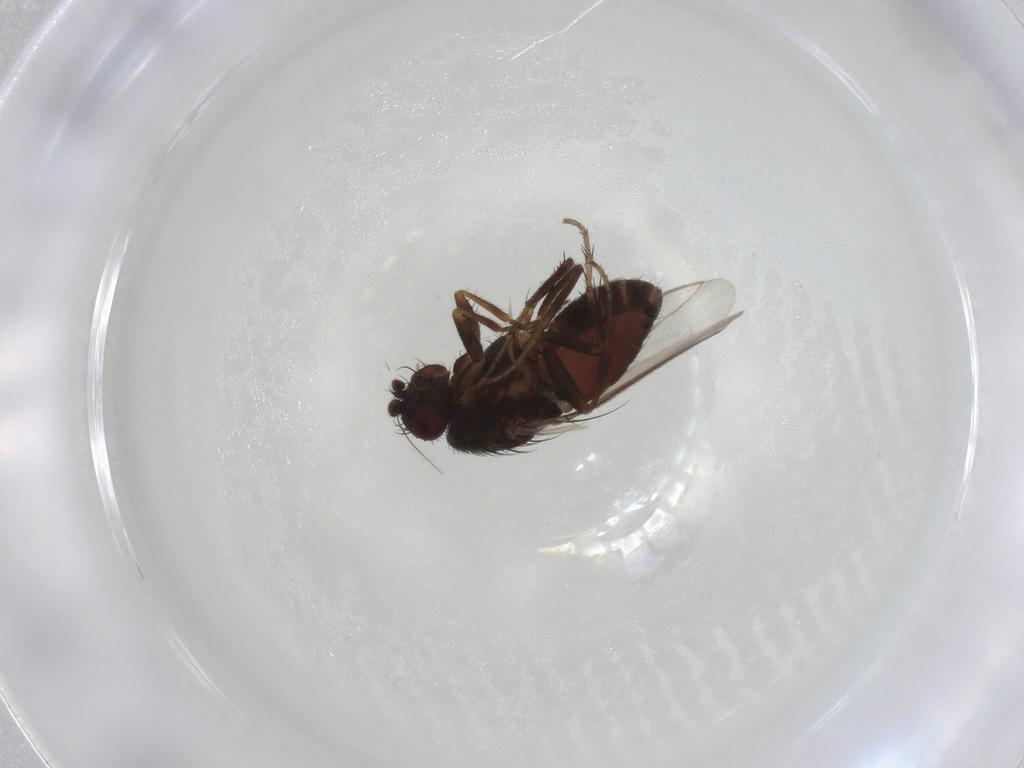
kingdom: Animalia
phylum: Arthropoda
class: Insecta
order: Diptera
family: Sphaeroceridae
